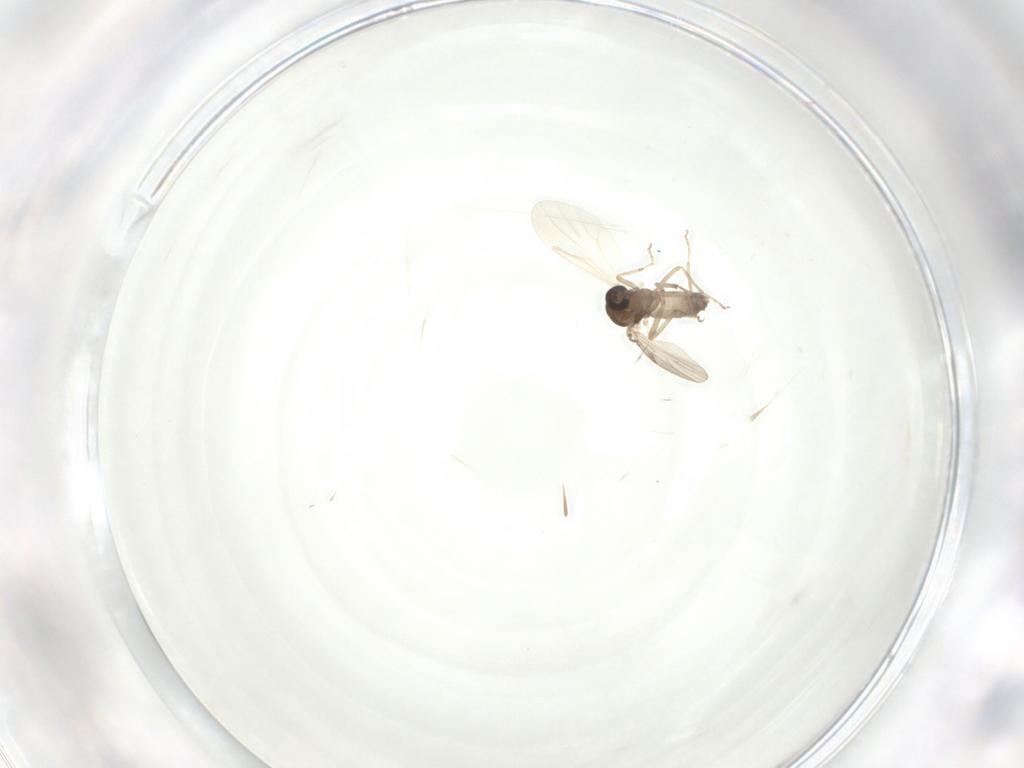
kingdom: Animalia
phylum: Arthropoda
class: Insecta
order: Diptera
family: Ceratopogonidae
